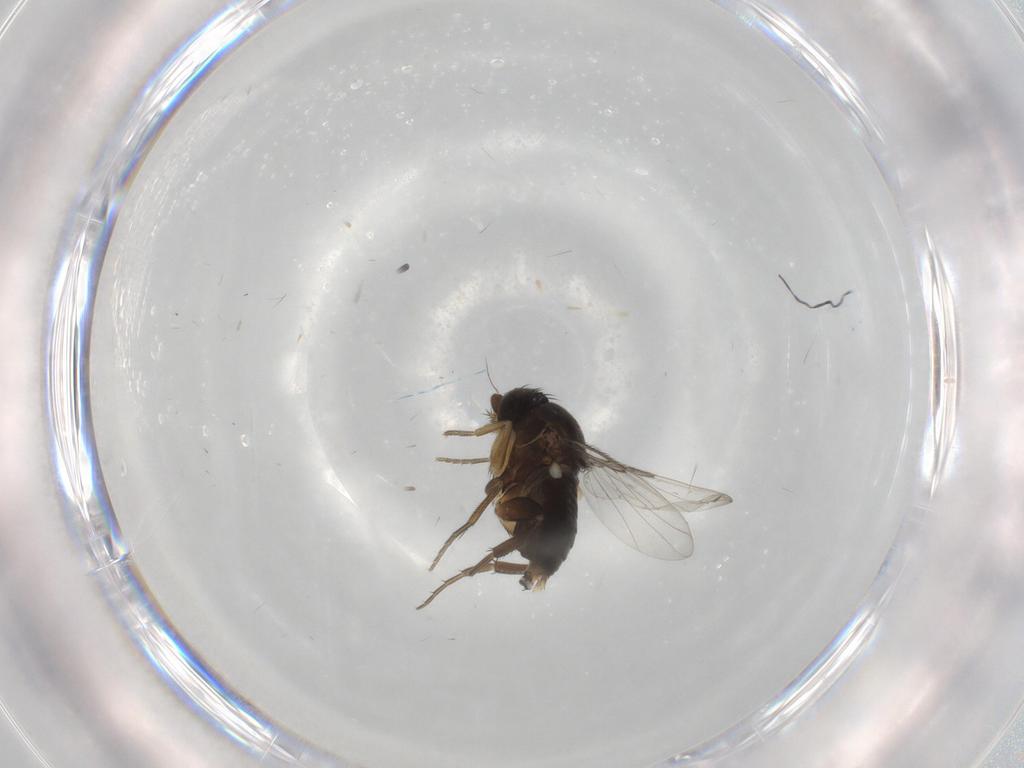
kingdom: Animalia
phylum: Arthropoda
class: Insecta
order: Diptera
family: Phoridae
